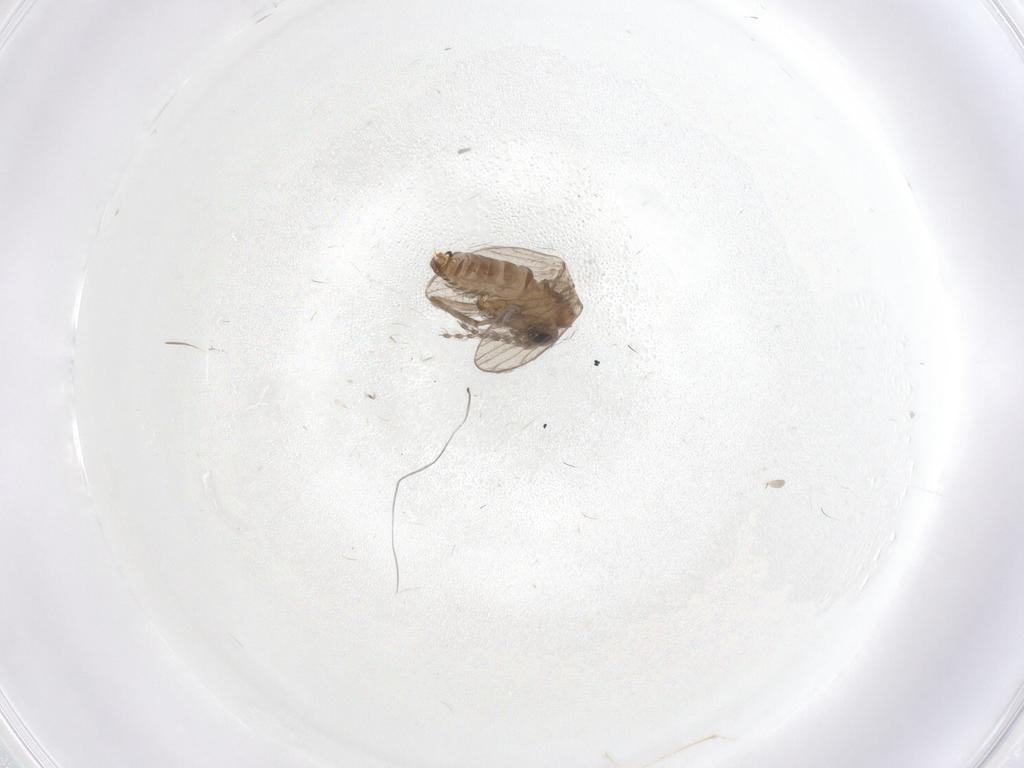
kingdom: Animalia
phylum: Arthropoda
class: Insecta
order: Diptera
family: Psychodidae
